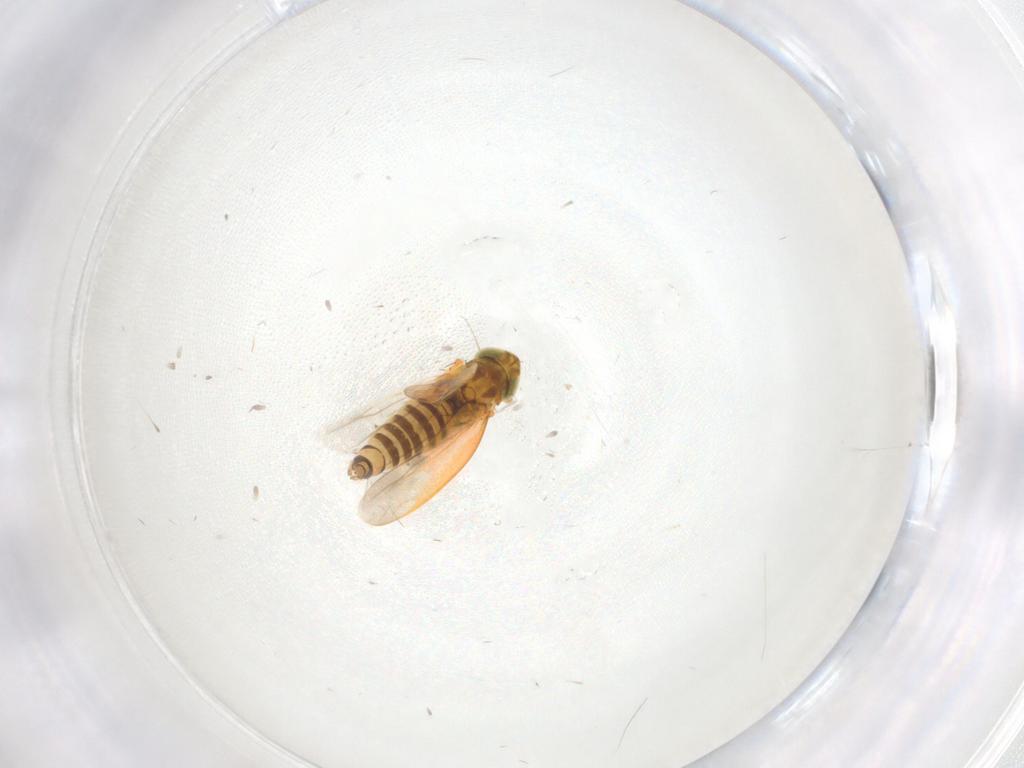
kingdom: Animalia
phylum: Arthropoda
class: Insecta
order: Hemiptera
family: Cicadellidae
